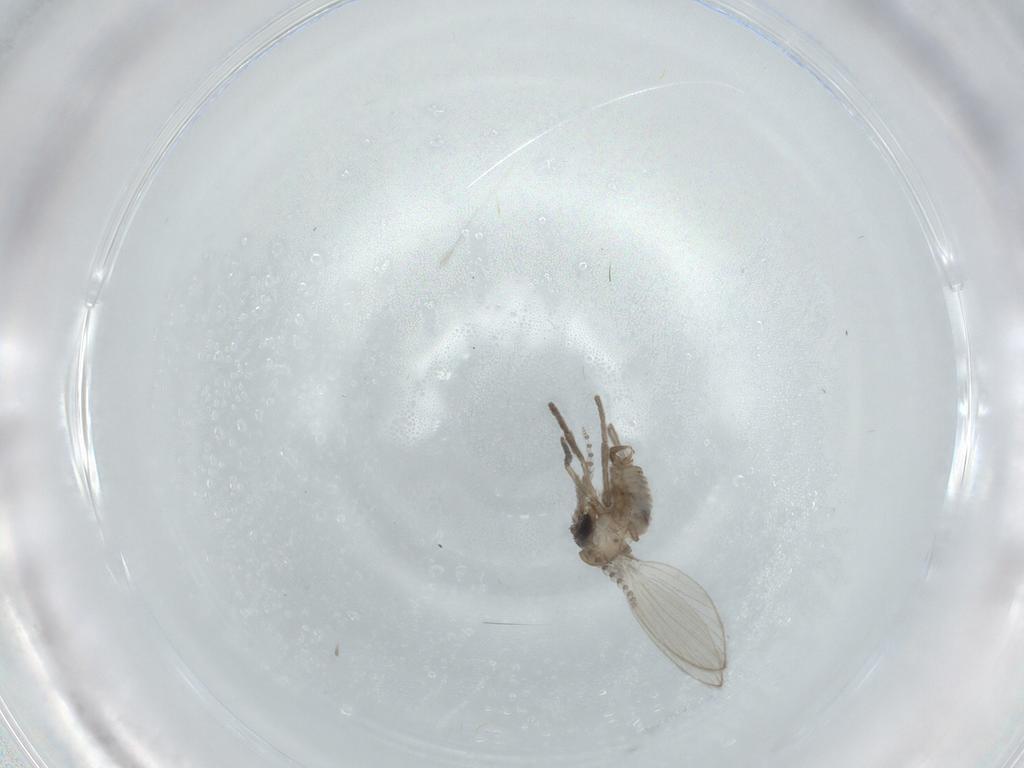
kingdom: Animalia
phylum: Arthropoda
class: Insecta
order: Diptera
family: Psychodidae
